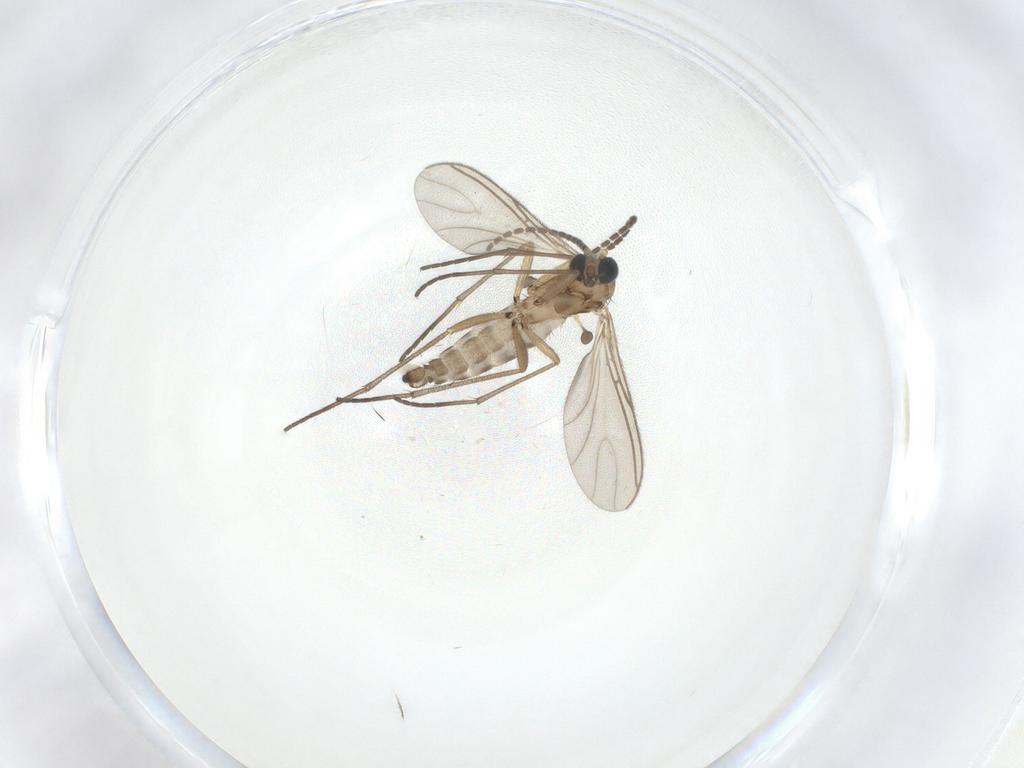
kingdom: Animalia
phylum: Arthropoda
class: Insecta
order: Diptera
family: Sciaridae
